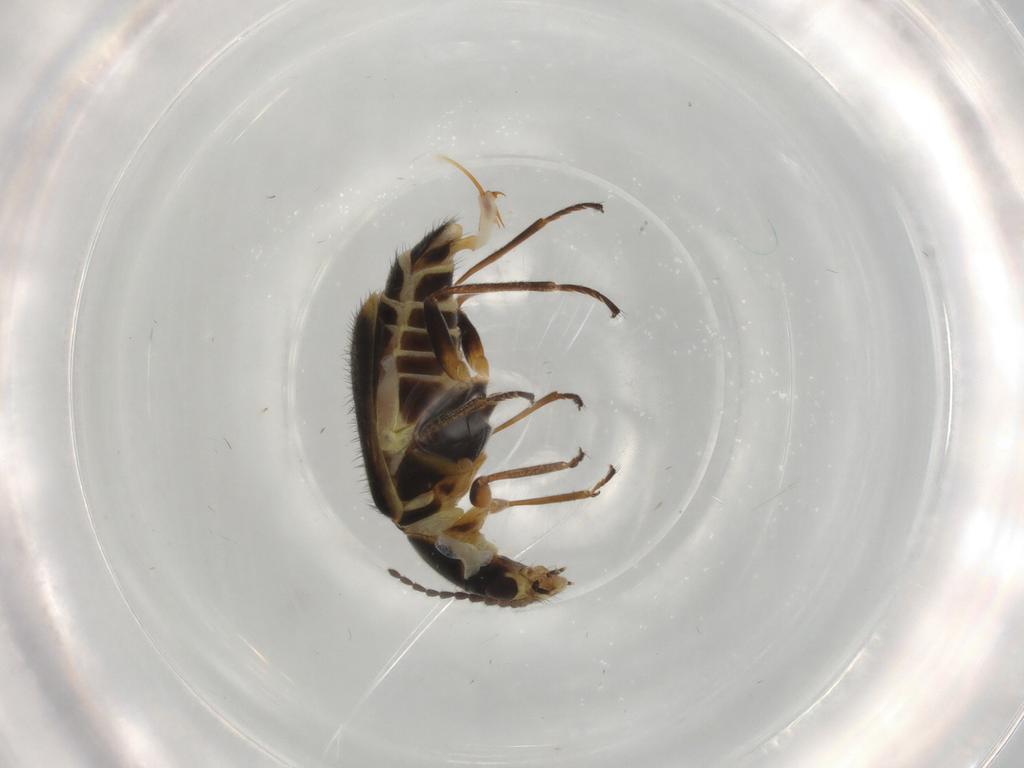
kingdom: Animalia
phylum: Arthropoda
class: Insecta
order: Coleoptera
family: Melyridae
